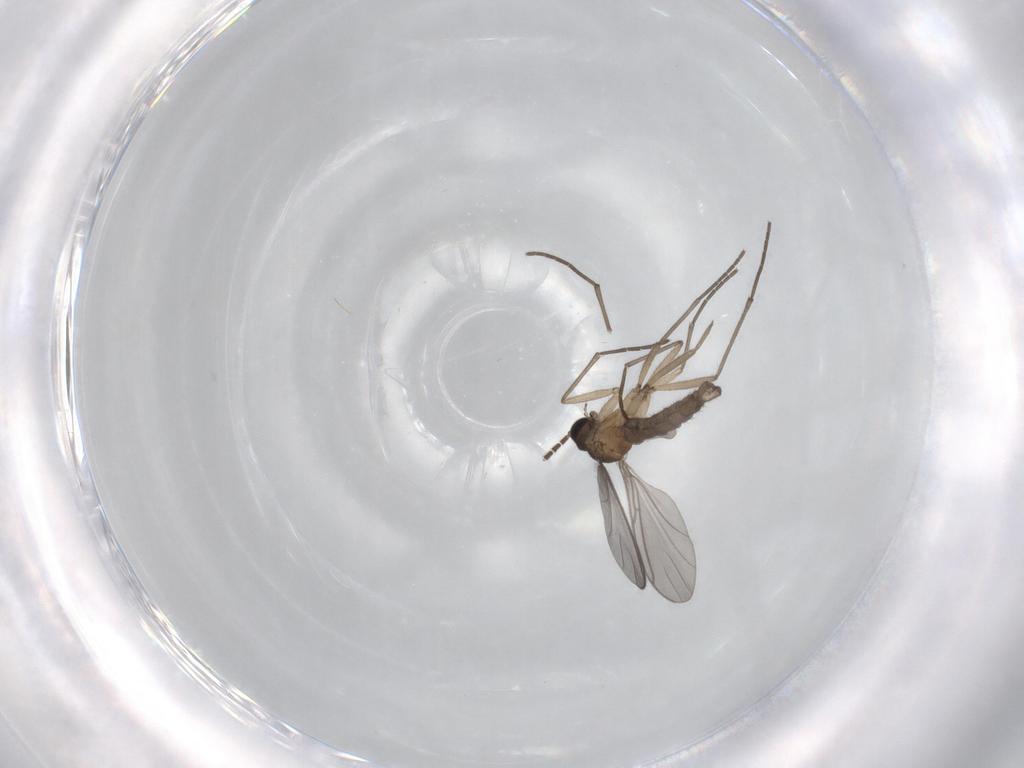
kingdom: Animalia
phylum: Arthropoda
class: Insecta
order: Diptera
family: Sciaridae
